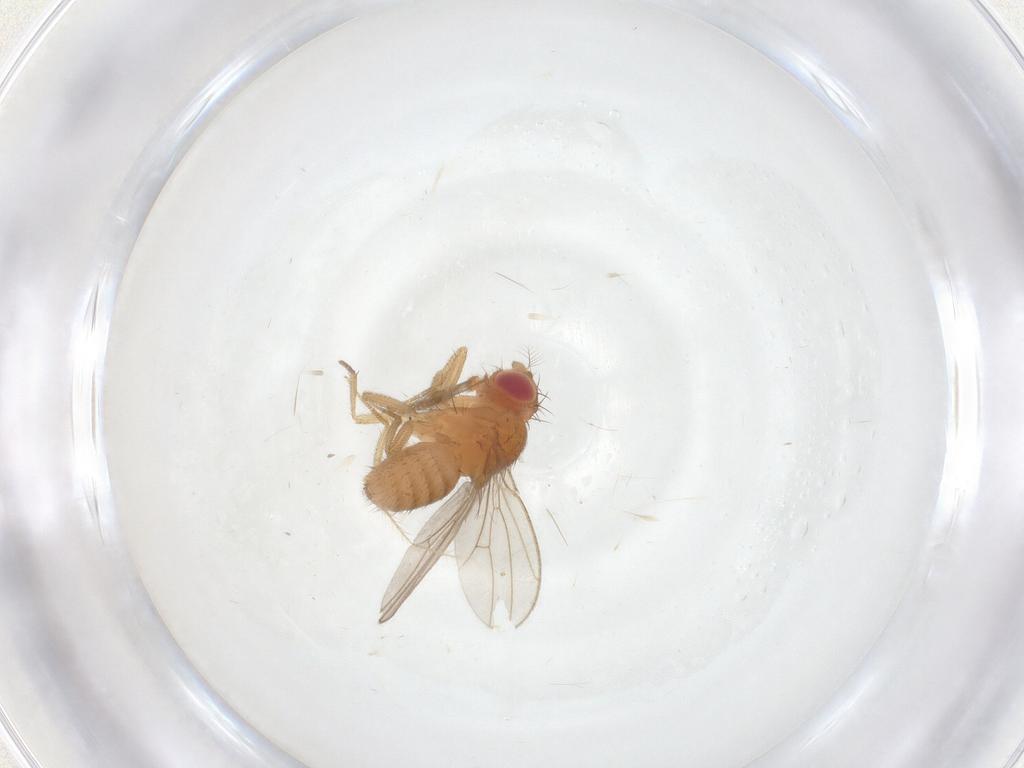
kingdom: Animalia
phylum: Arthropoda
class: Insecta
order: Diptera
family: Drosophilidae
